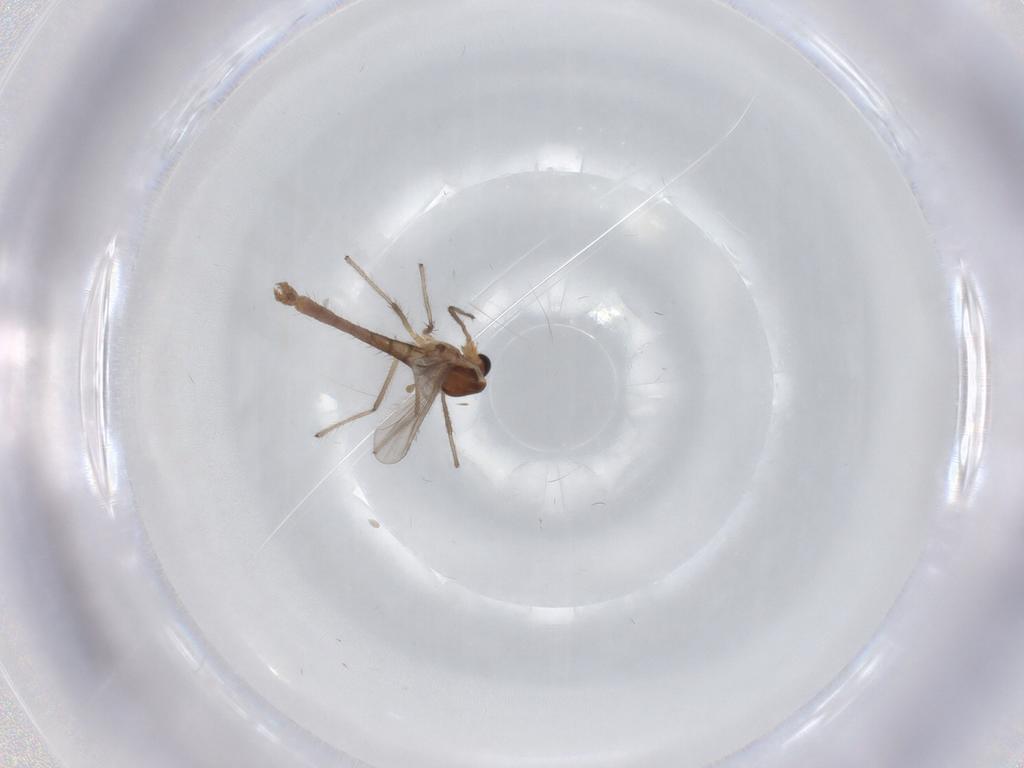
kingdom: Animalia
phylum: Arthropoda
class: Insecta
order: Diptera
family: Chironomidae
